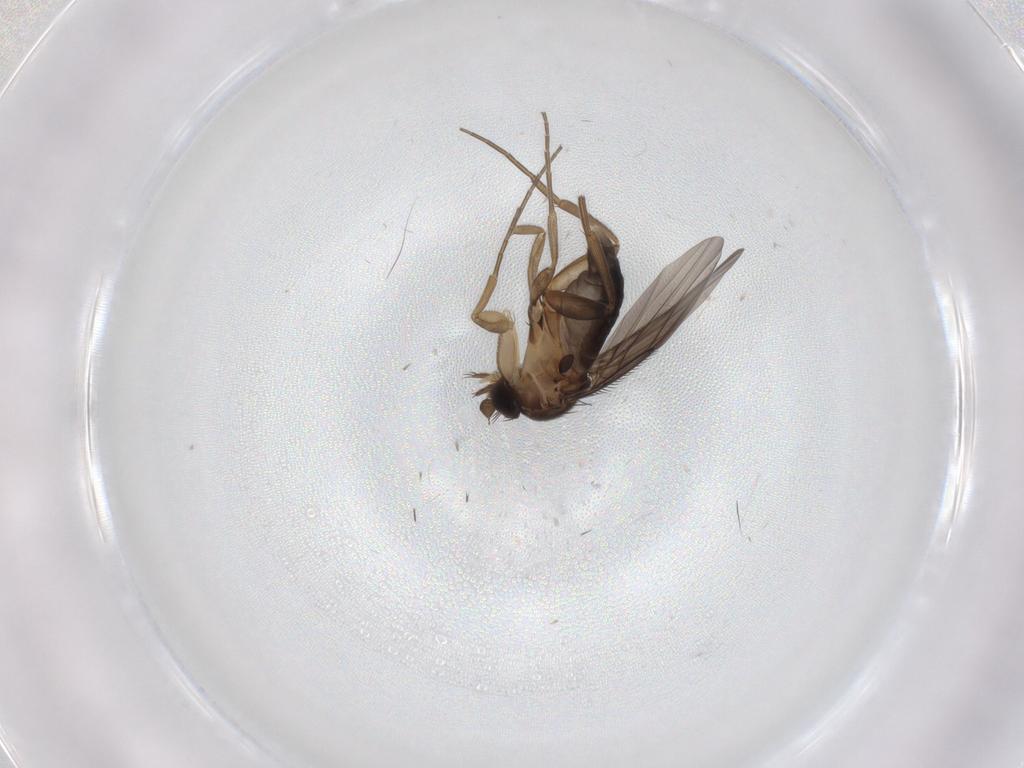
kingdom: Animalia
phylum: Arthropoda
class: Insecta
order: Diptera
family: Phoridae
